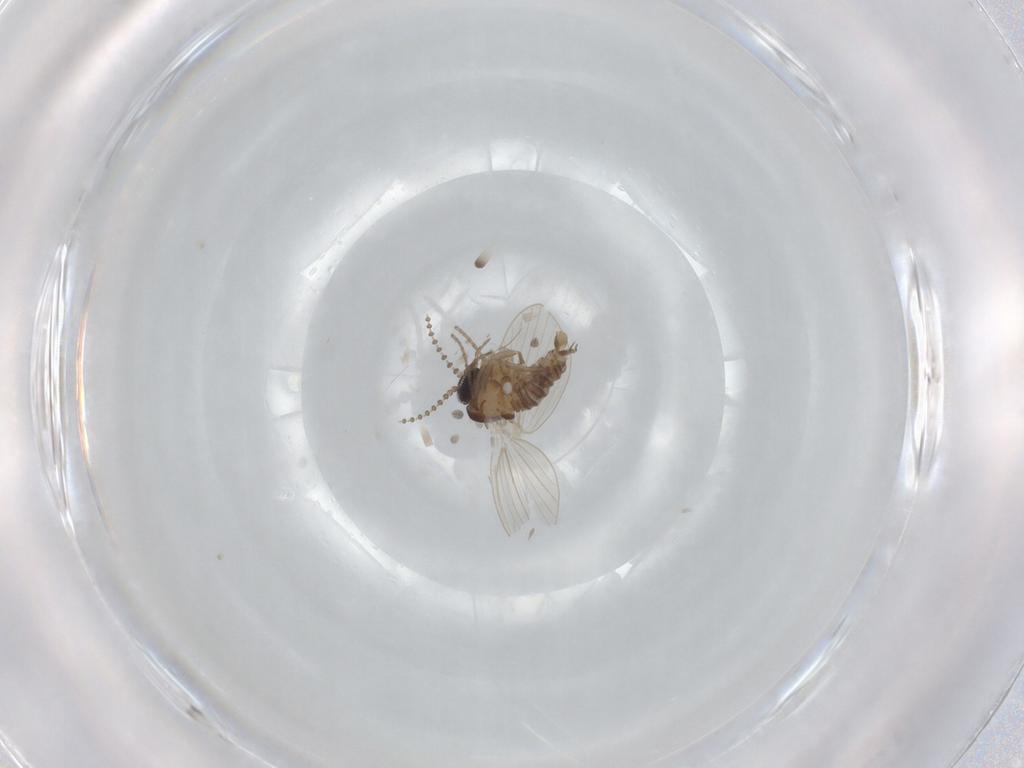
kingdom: Animalia
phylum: Arthropoda
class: Insecta
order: Diptera
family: Psychodidae
